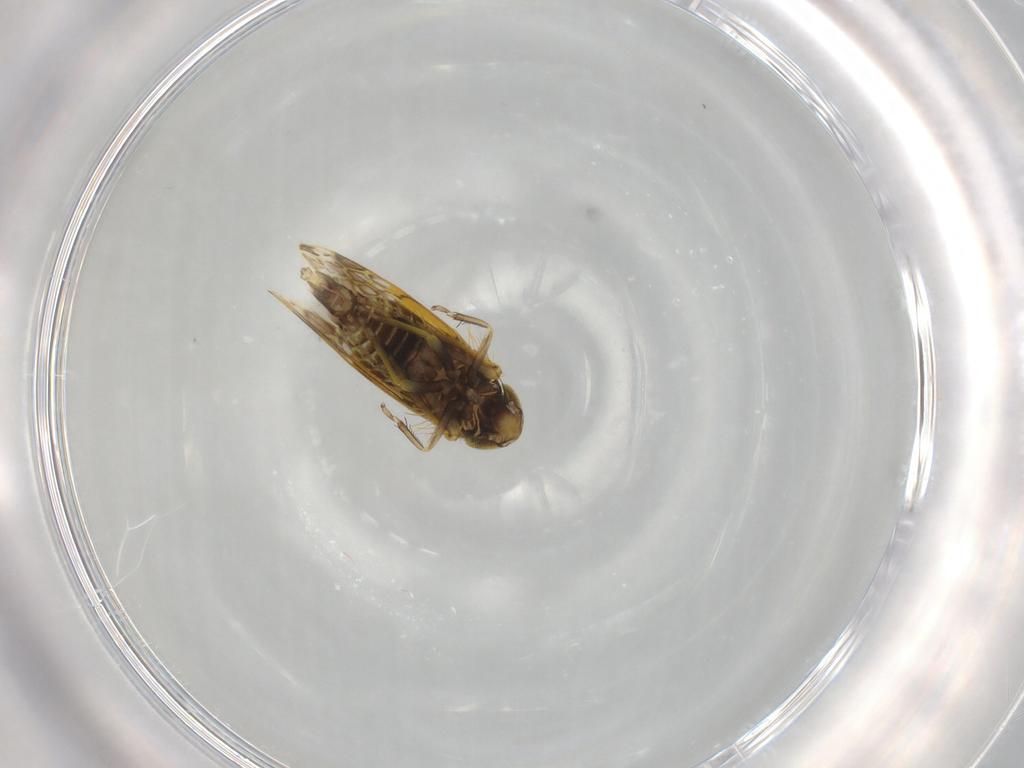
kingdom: Animalia
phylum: Arthropoda
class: Insecta
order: Hemiptera
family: Cicadellidae
